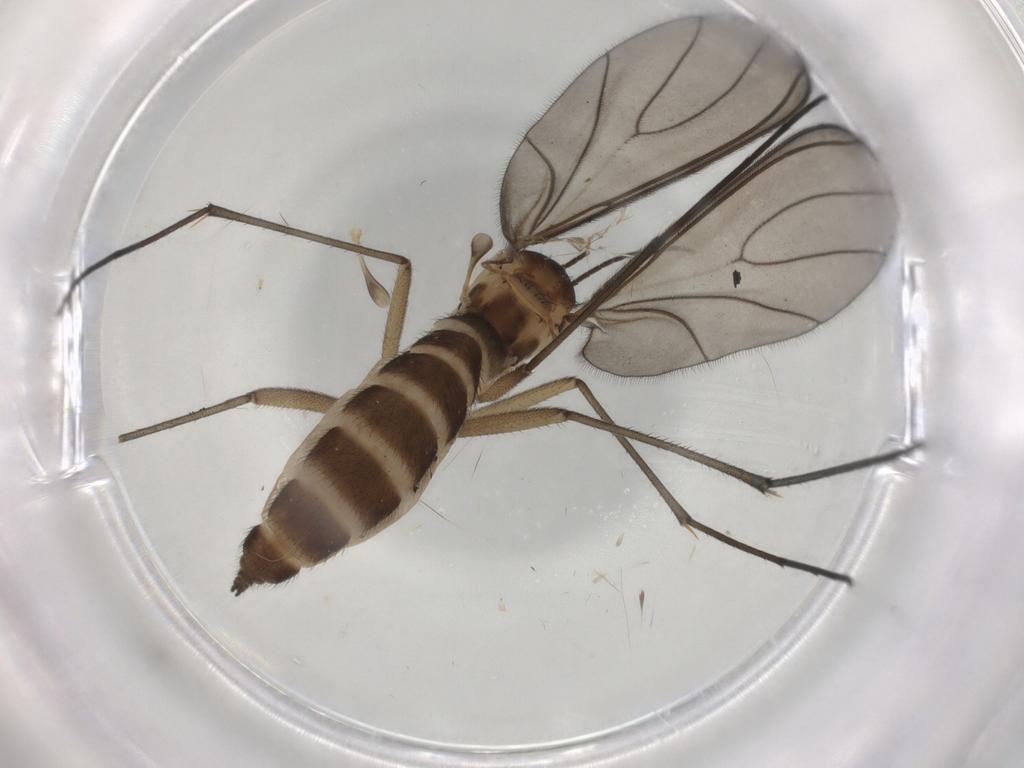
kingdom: Animalia
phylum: Arthropoda
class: Insecta
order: Diptera
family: Sciaridae
